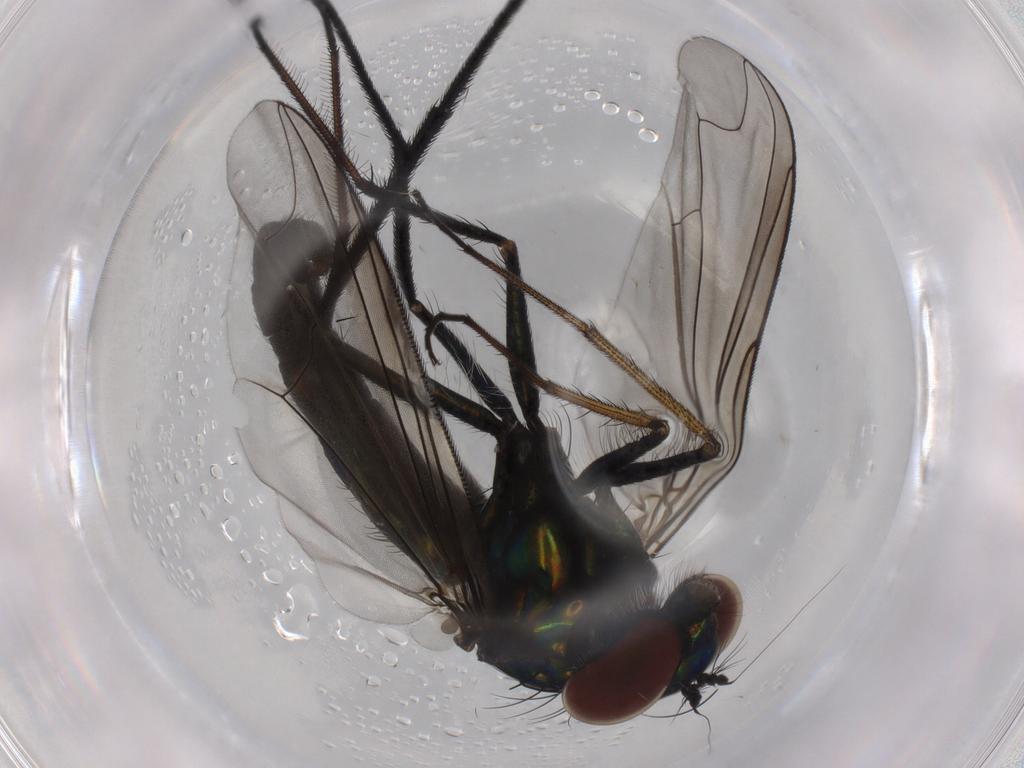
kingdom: Animalia
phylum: Arthropoda
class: Insecta
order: Diptera
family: Dolichopodidae
